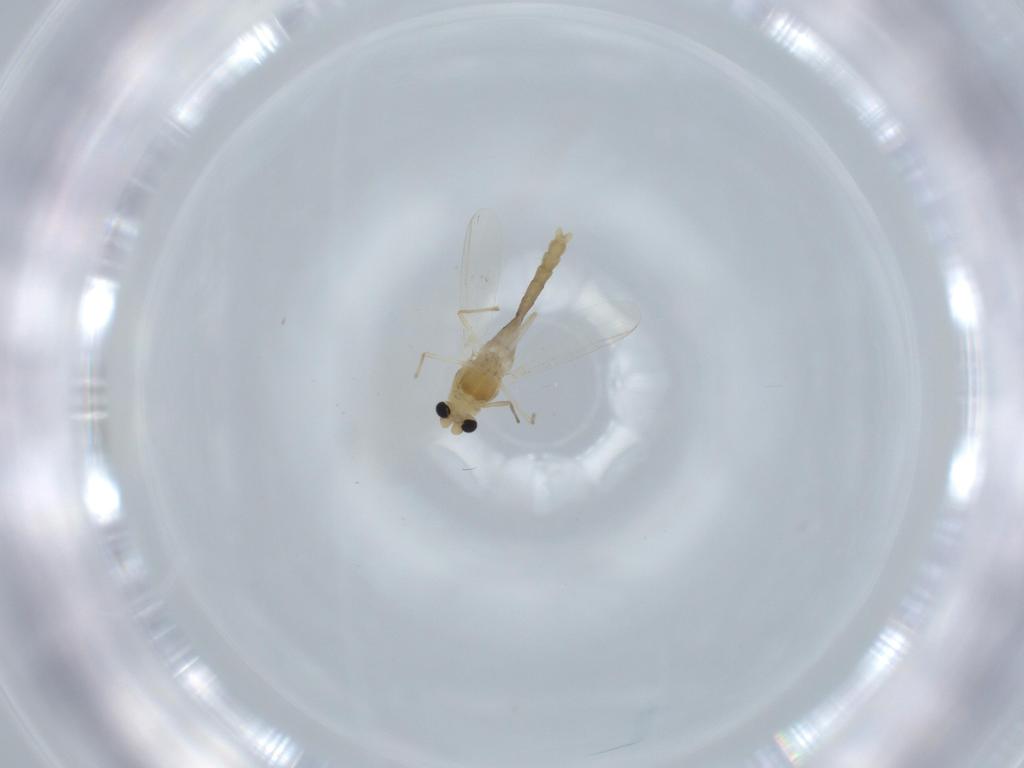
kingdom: Animalia
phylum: Arthropoda
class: Insecta
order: Diptera
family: Chironomidae
